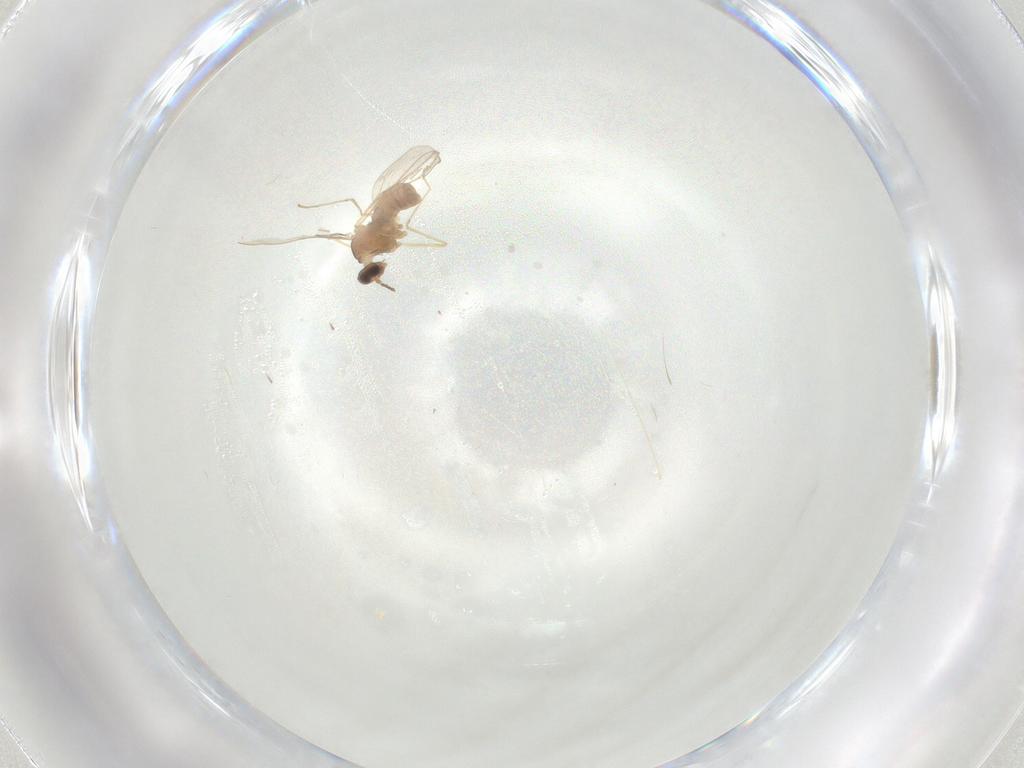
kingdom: Animalia
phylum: Arthropoda
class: Insecta
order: Diptera
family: Cecidomyiidae
